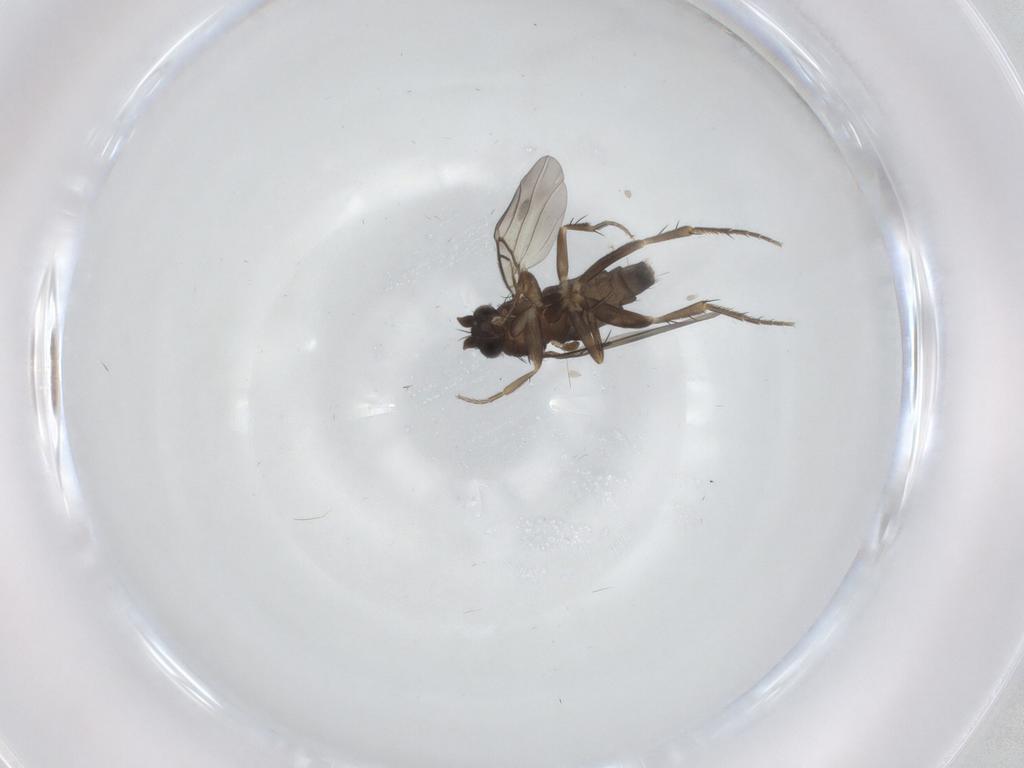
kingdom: Animalia
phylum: Arthropoda
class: Insecta
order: Diptera
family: Phoridae
